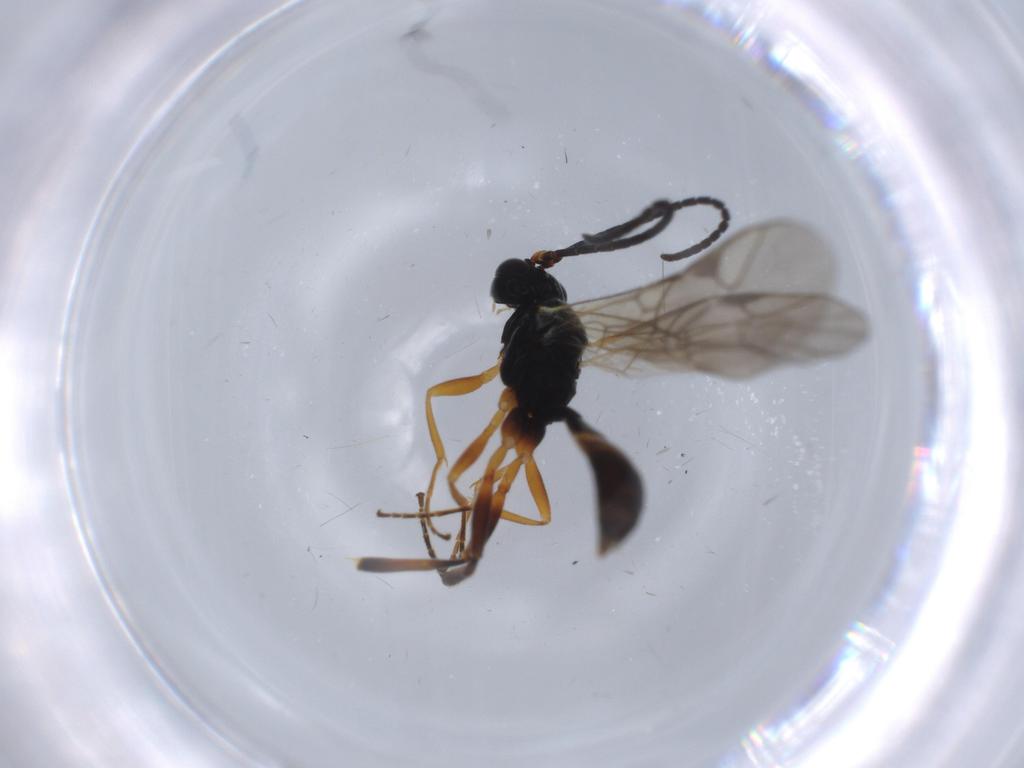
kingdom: Animalia
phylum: Arthropoda
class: Insecta
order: Hymenoptera
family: Ichneumonidae
